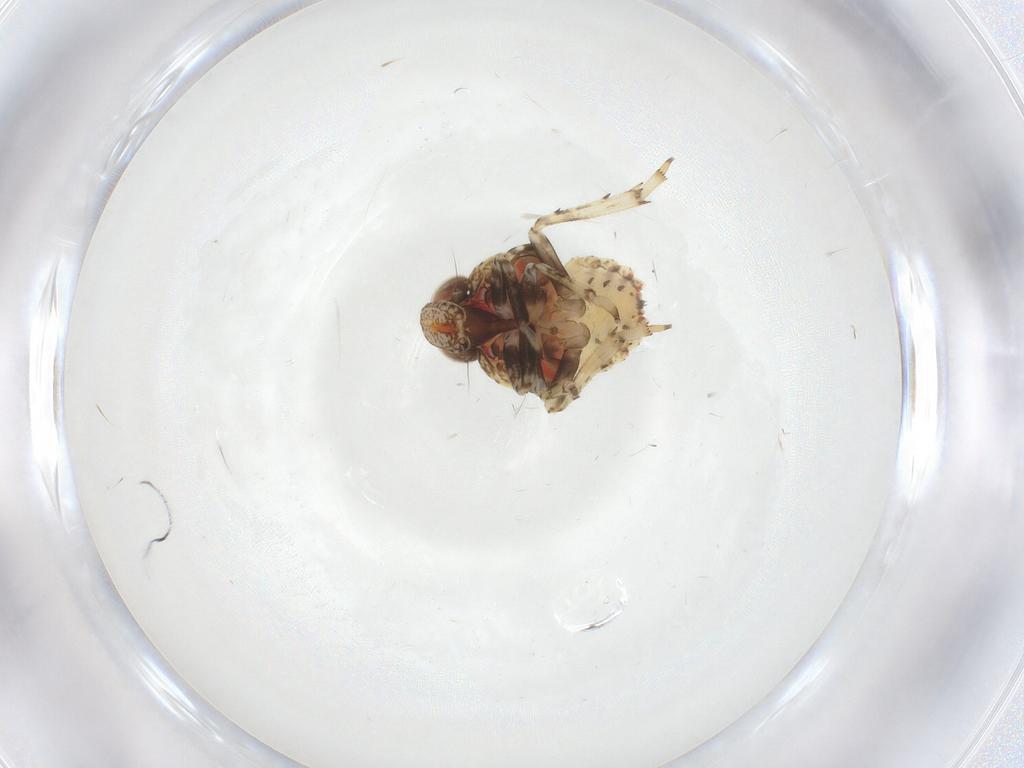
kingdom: Animalia
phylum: Arthropoda
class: Insecta
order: Hemiptera
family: Issidae
